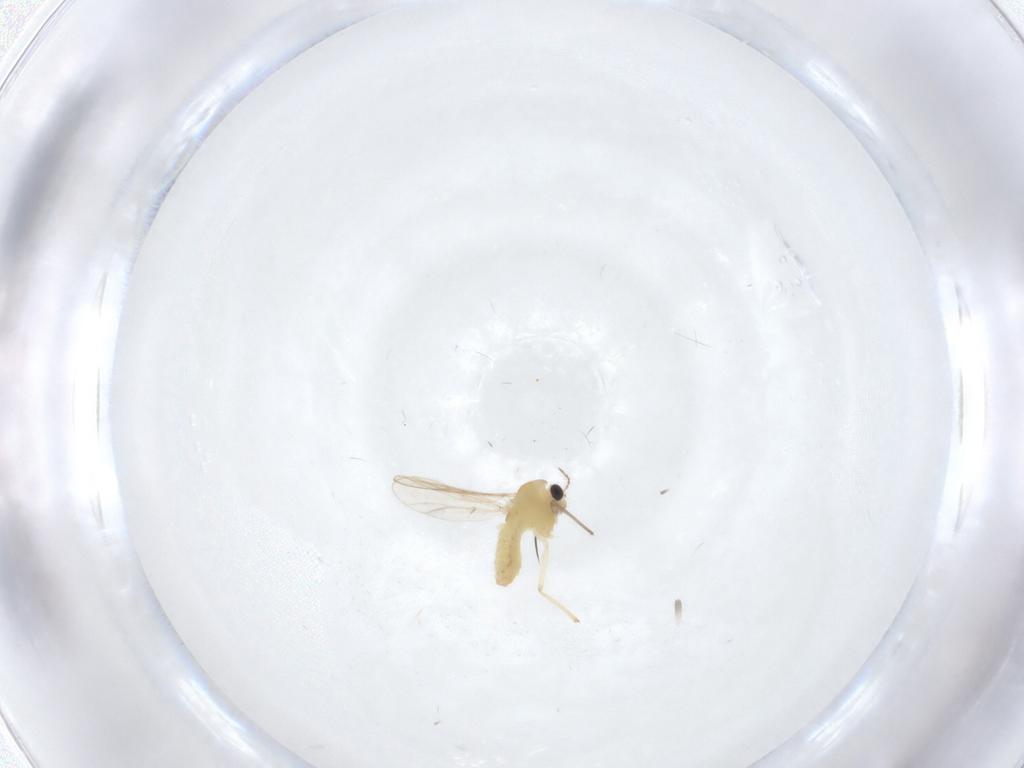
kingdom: Animalia
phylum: Arthropoda
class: Insecta
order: Diptera
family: Chironomidae
